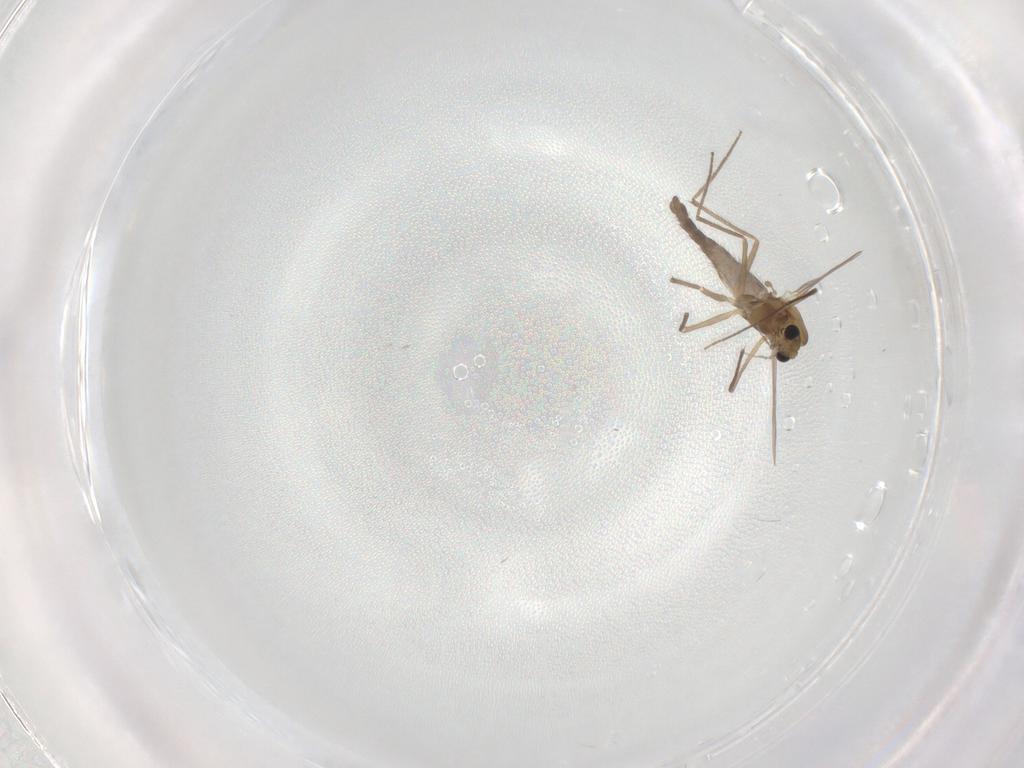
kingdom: Animalia
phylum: Arthropoda
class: Insecta
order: Diptera
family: Chironomidae
